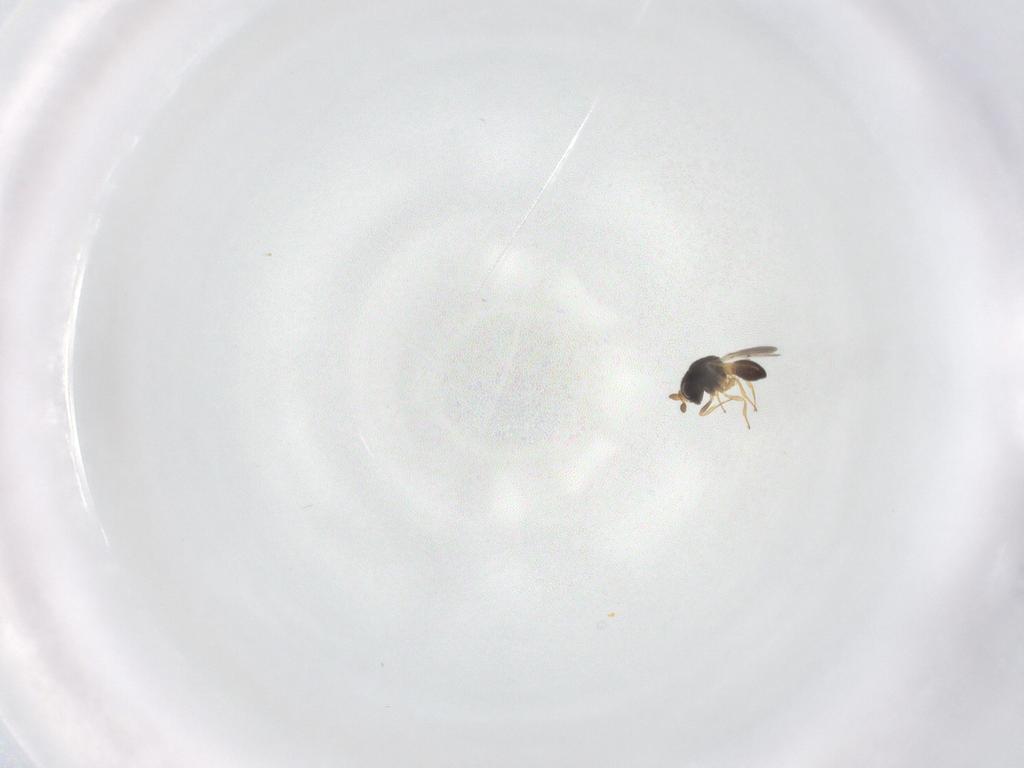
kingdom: Animalia
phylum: Arthropoda
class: Insecta
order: Hymenoptera
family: Scelionidae
